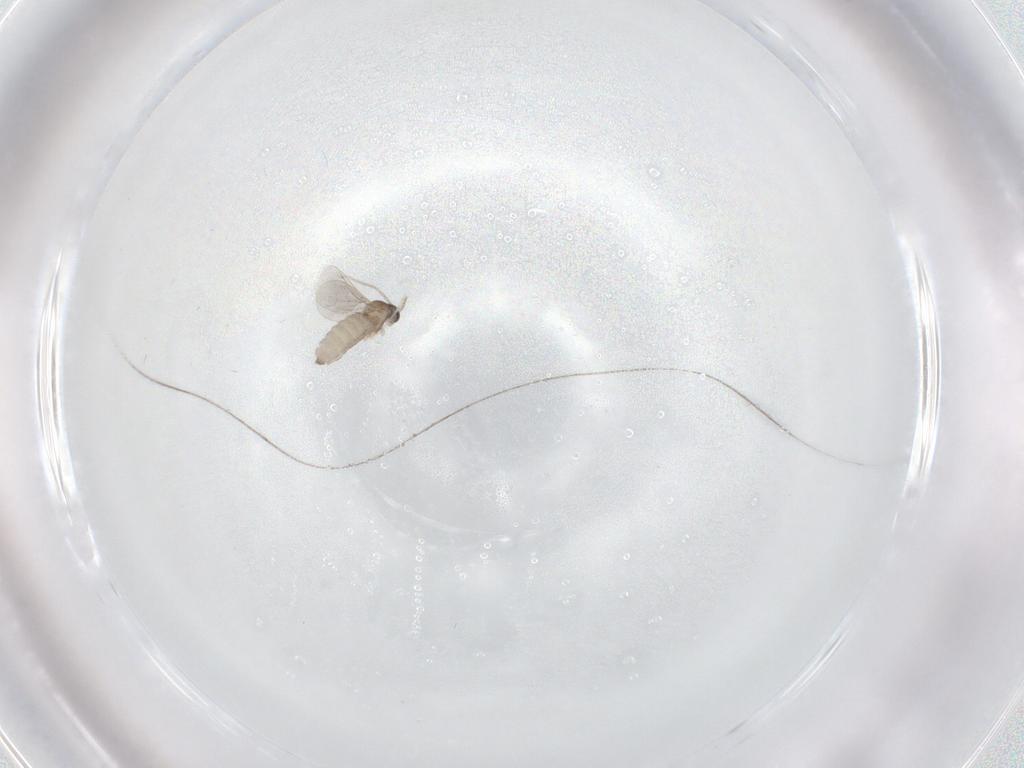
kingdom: Animalia
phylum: Arthropoda
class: Insecta
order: Diptera
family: Cecidomyiidae
